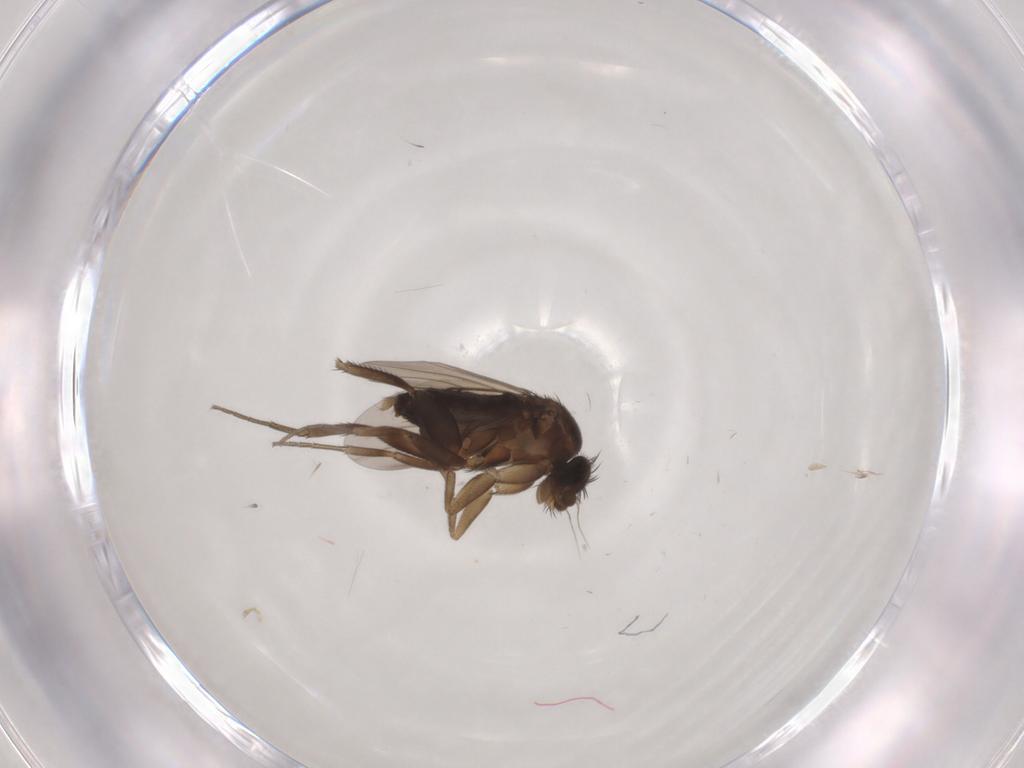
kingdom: Animalia
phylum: Arthropoda
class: Insecta
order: Diptera
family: Phoridae
